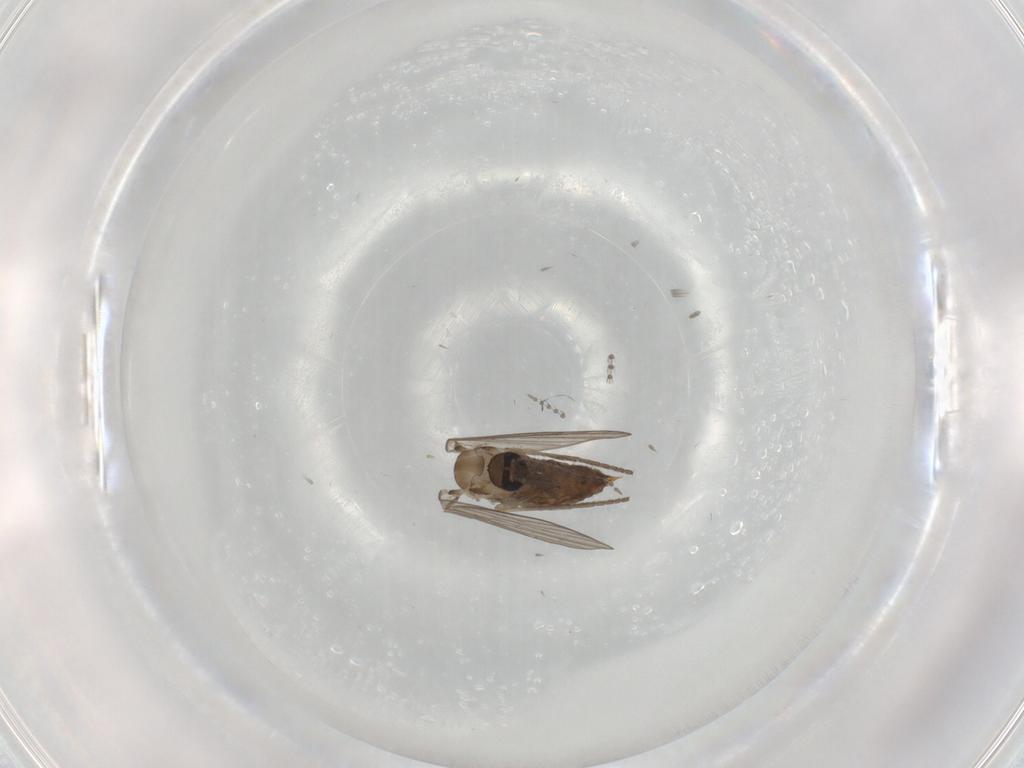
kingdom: Animalia
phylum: Arthropoda
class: Insecta
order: Diptera
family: Psychodidae
